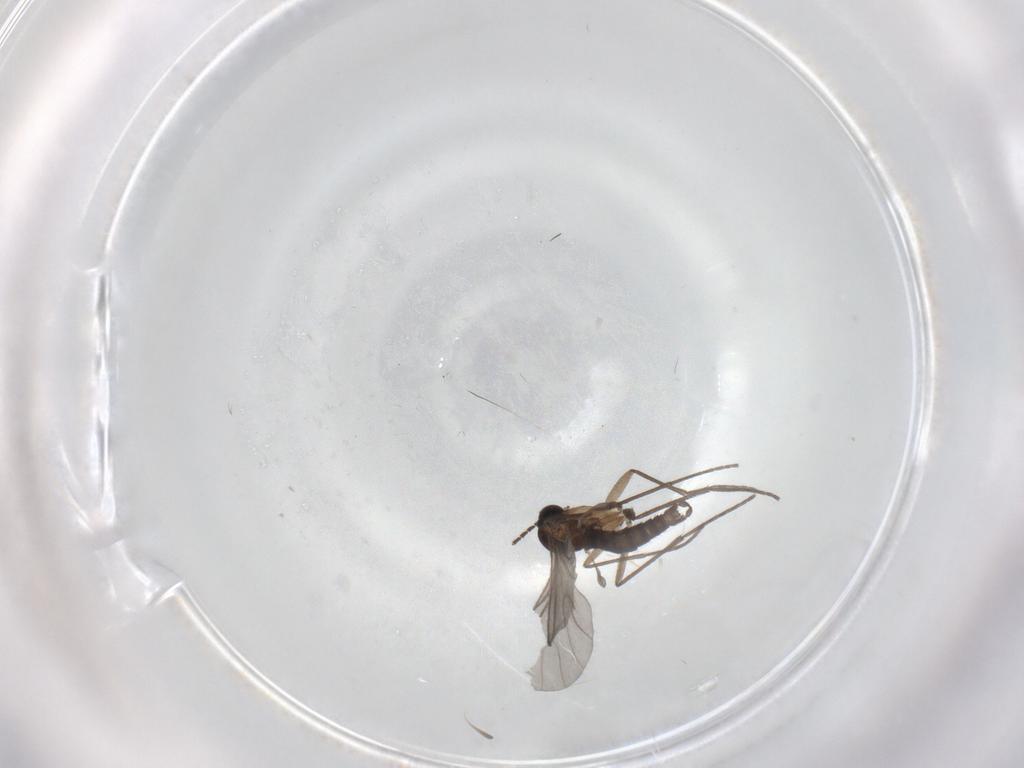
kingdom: Animalia
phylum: Arthropoda
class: Insecta
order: Diptera
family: Sciaridae
